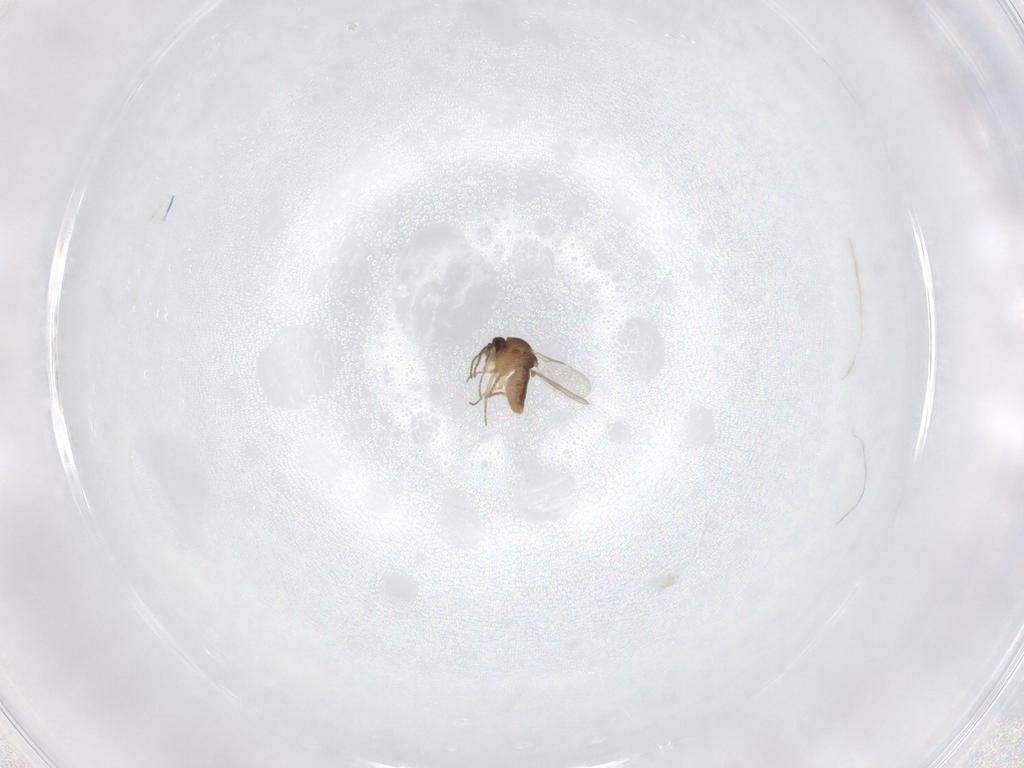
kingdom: Animalia
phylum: Arthropoda
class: Insecta
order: Diptera
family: Ceratopogonidae
